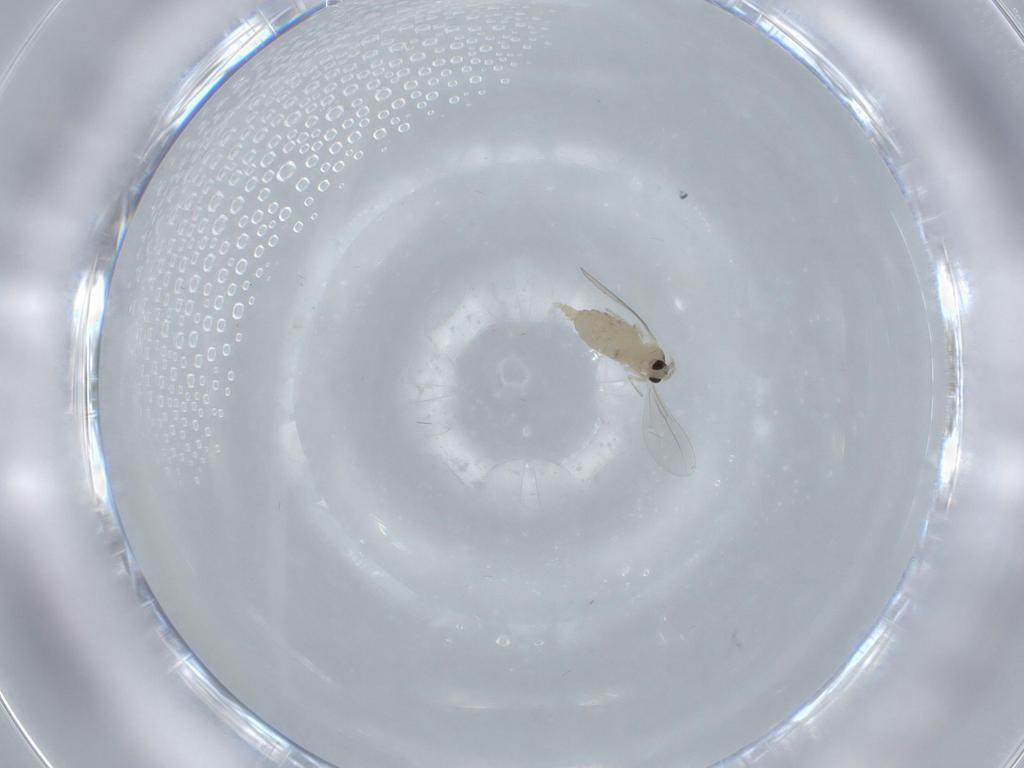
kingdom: Animalia
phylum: Arthropoda
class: Insecta
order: Diptera
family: Cecidomyiidae
